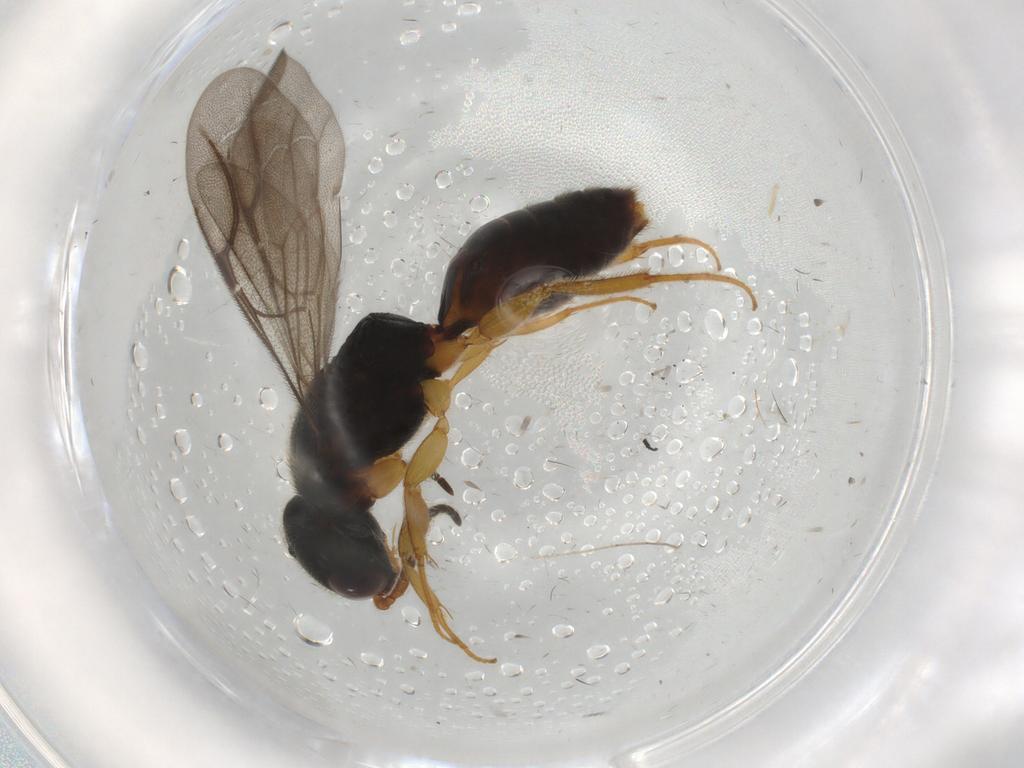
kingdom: Animalia
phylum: Arthropoda
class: Insecta
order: Hymenoptera
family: Bethylidae
